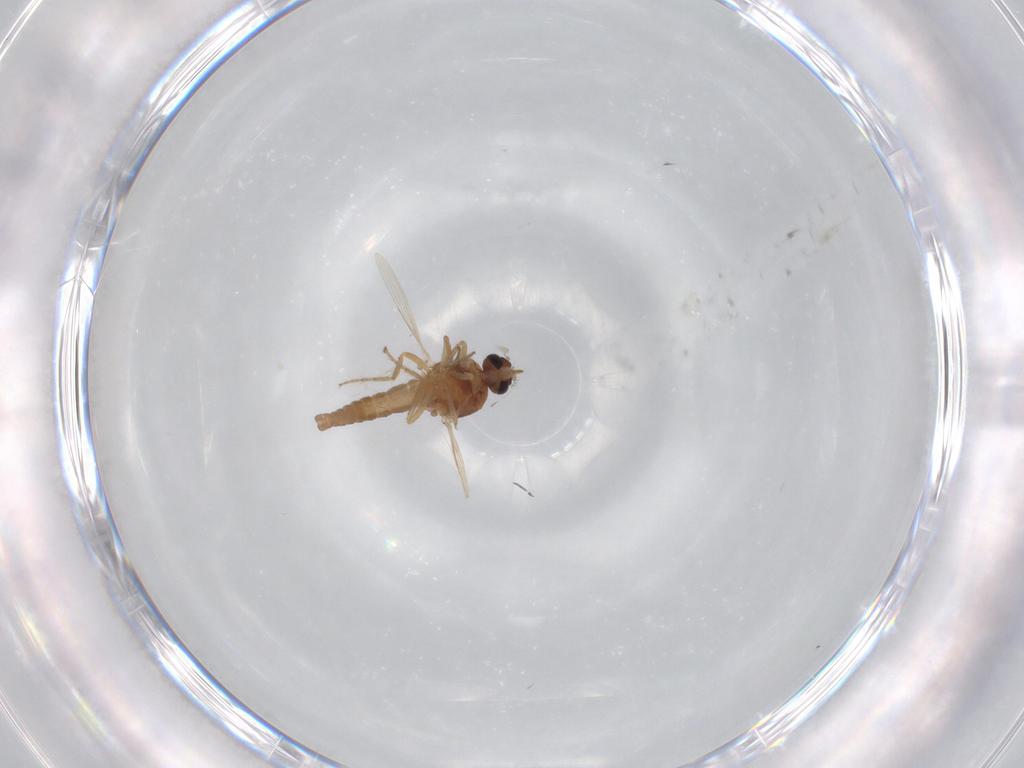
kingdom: Animalia
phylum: Arthropoda
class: Insecta
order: Diptera
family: Ceratopogonidae
